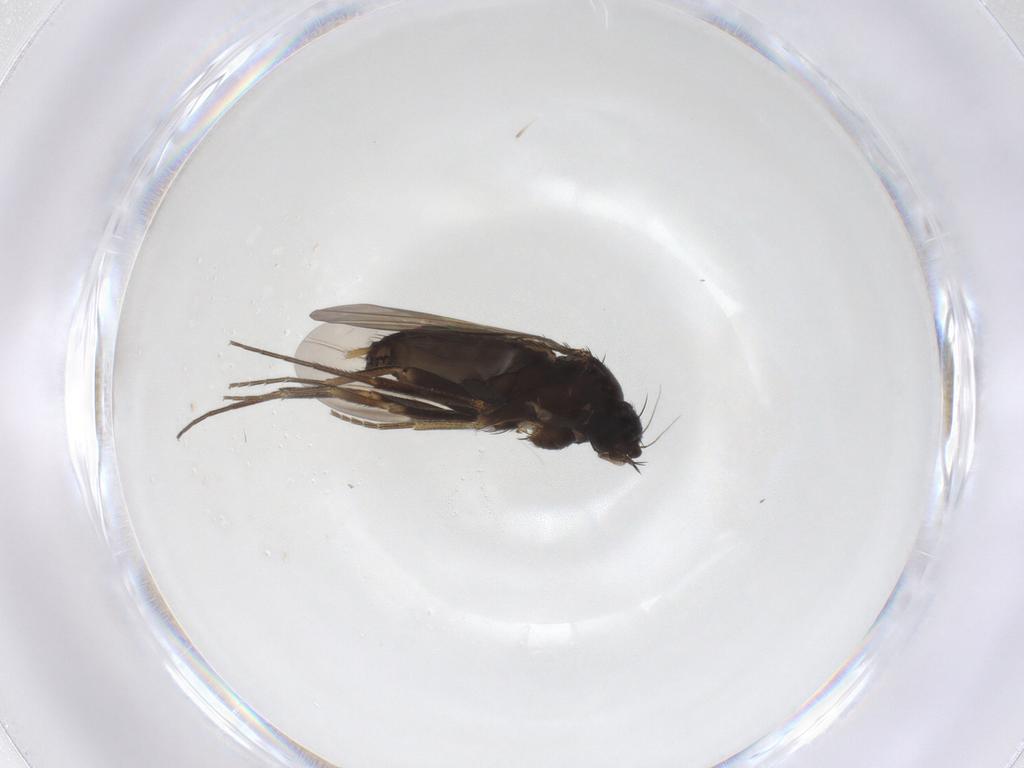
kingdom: Animalia
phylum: Arthropoda
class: Insecta
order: Diptera
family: Phoridae
